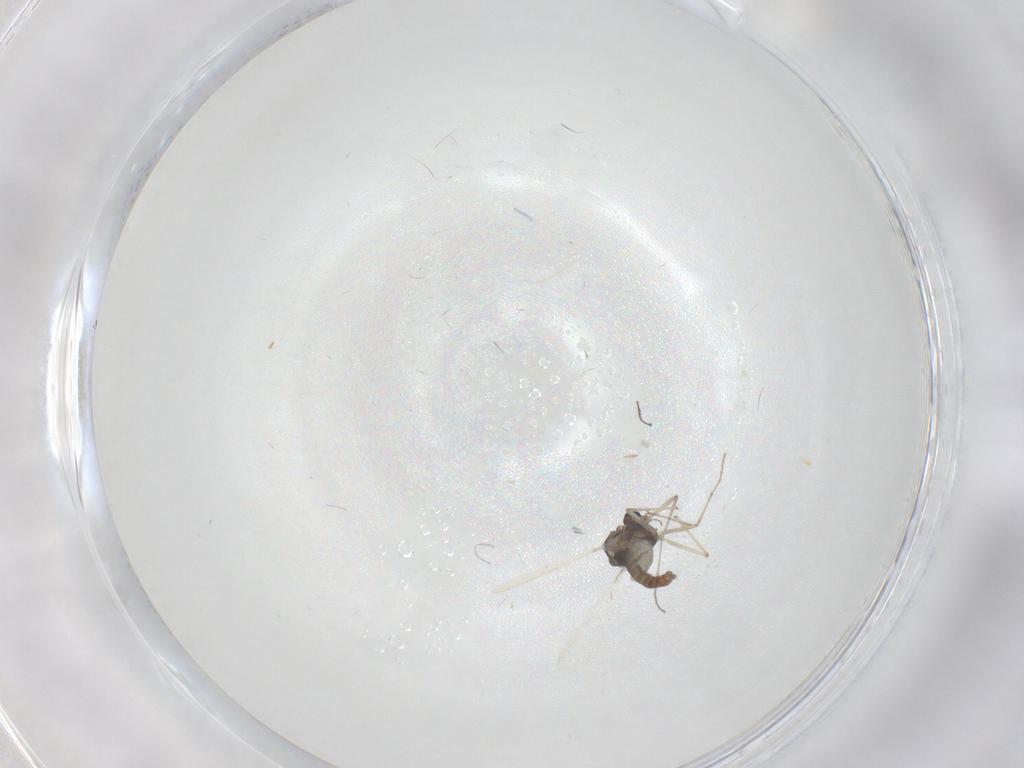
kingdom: Animalia
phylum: Arthropoda
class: Insecta
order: Diptera
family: Chironomidae
